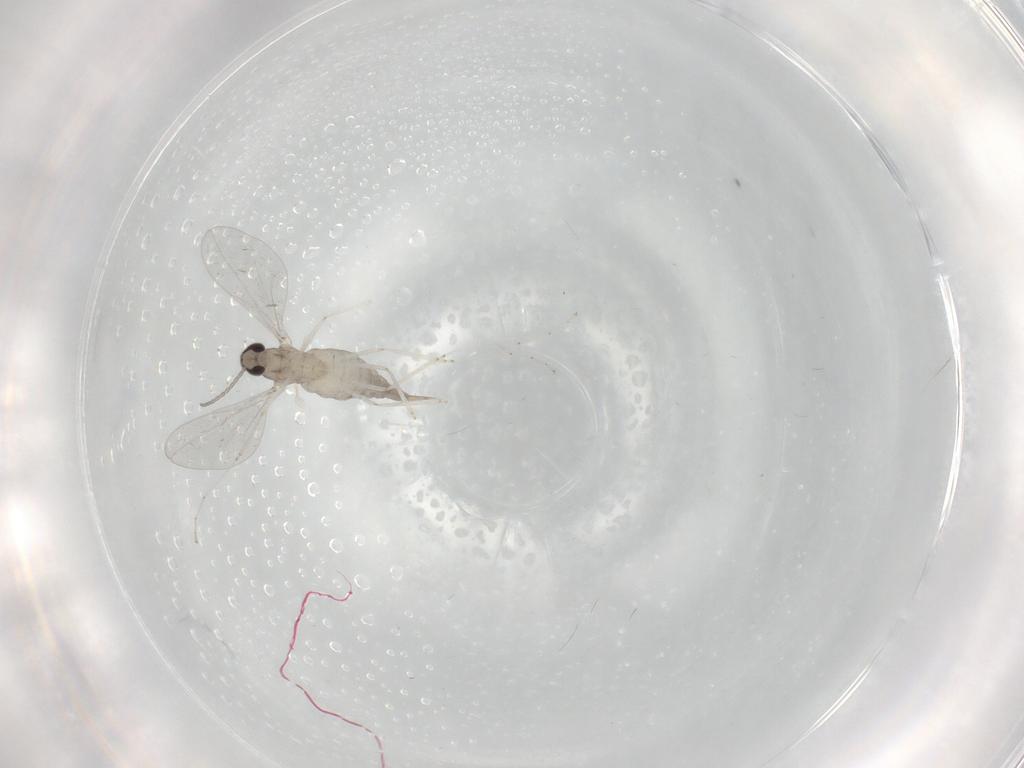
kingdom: Animalia
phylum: Arthropoda
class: Insecta
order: Diptera
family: Cecidomyiidae
